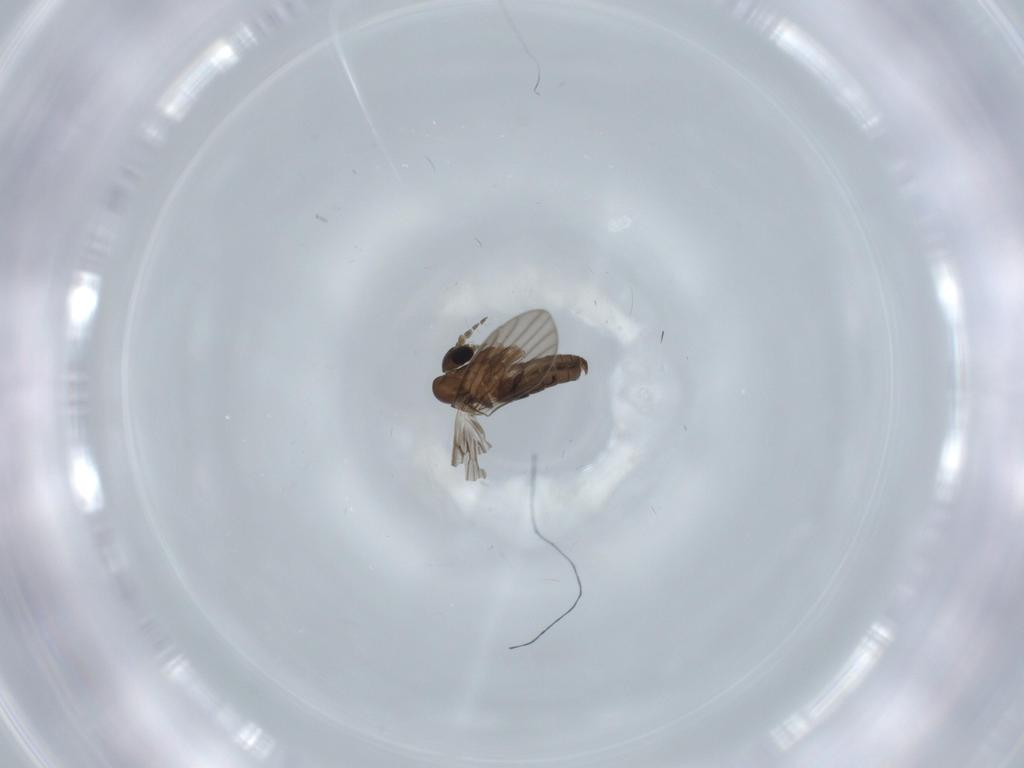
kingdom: Animalia
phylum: Arthropoda
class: Insecta
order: Diptera
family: Psychodidae
